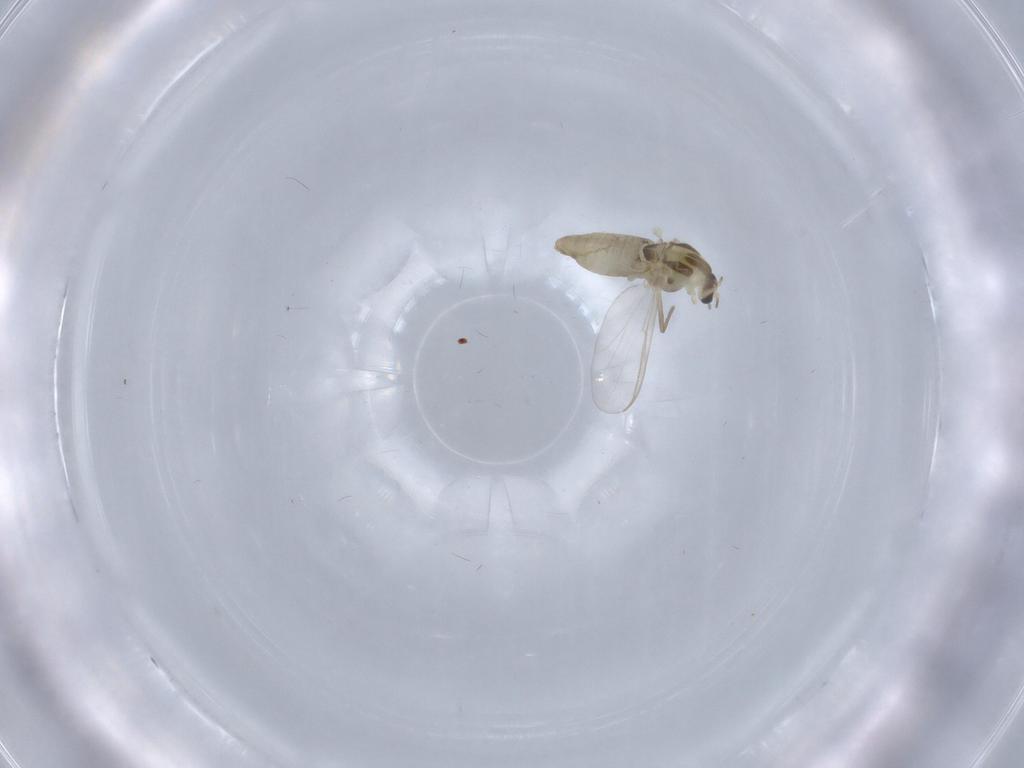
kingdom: Animalia
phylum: Arthropoda
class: Insecta
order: Diptera
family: Chironomidae
